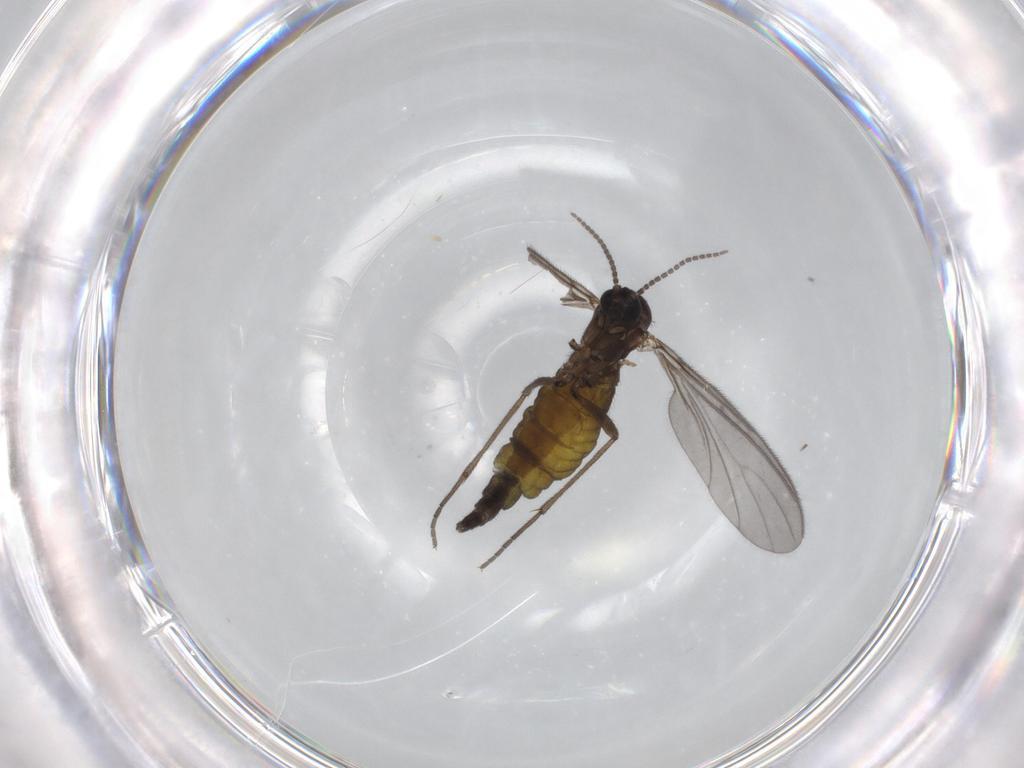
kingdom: Animalia
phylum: Arthropoda
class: Insecta
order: Diptera
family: Sciaridae
